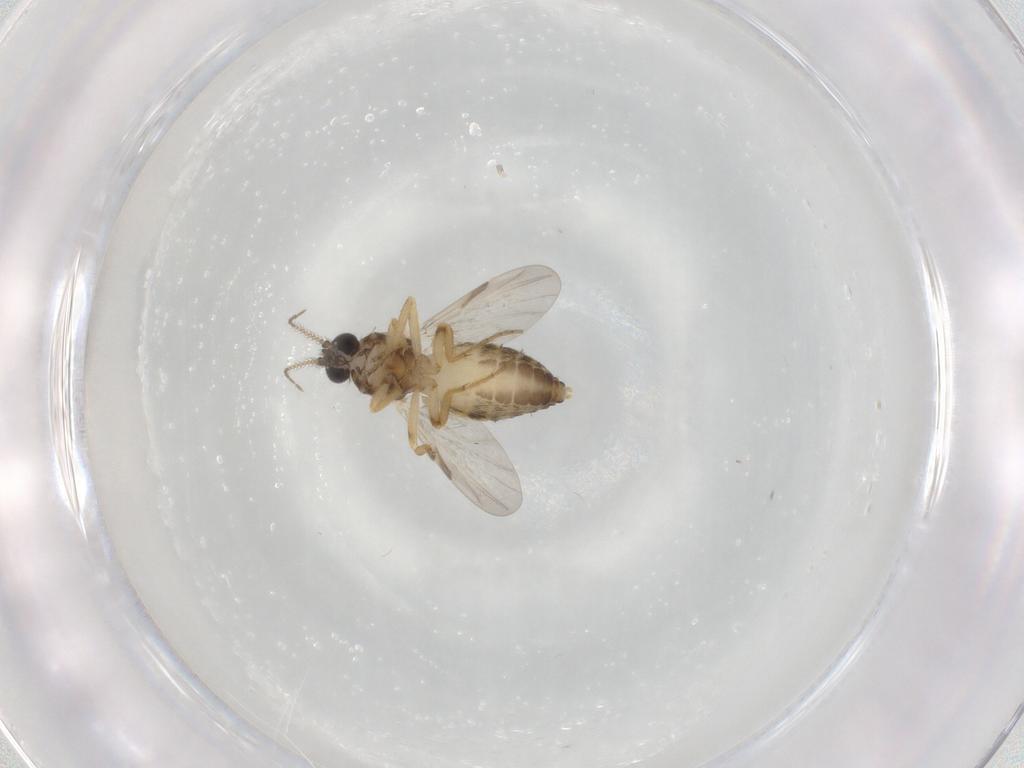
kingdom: Animalia
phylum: Arthropoda
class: Insecta
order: Diptera
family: Ceratopogonidae
